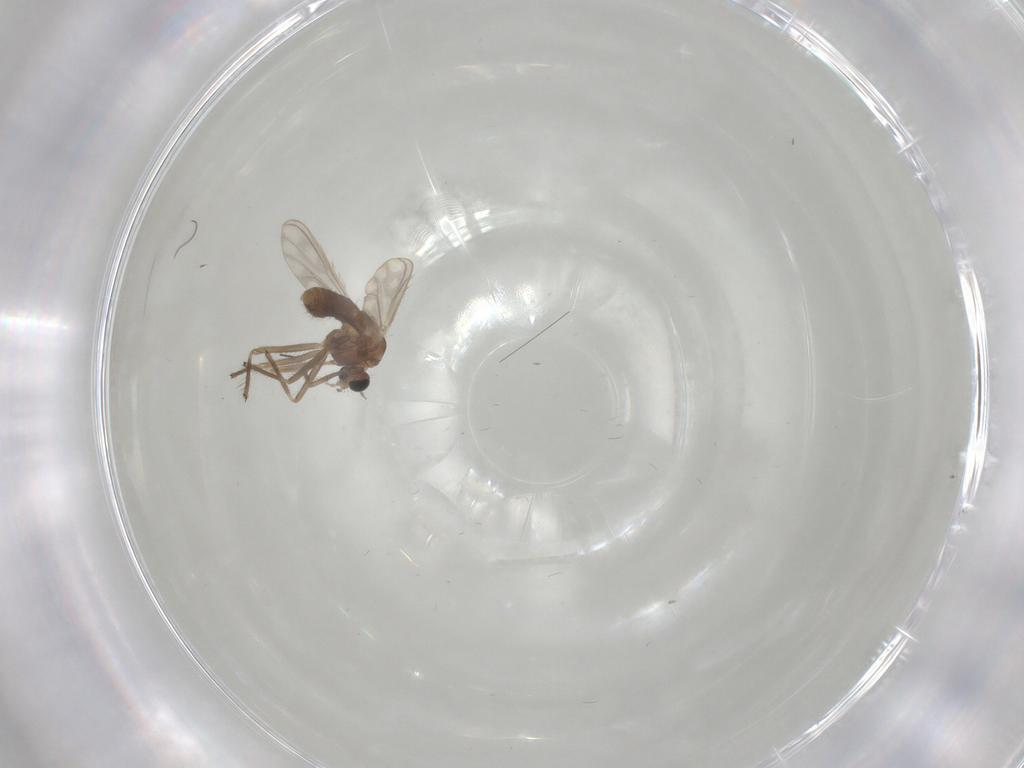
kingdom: Animalia
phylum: Arthropoda
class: Insecta
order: Diptera
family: Chironomidae
